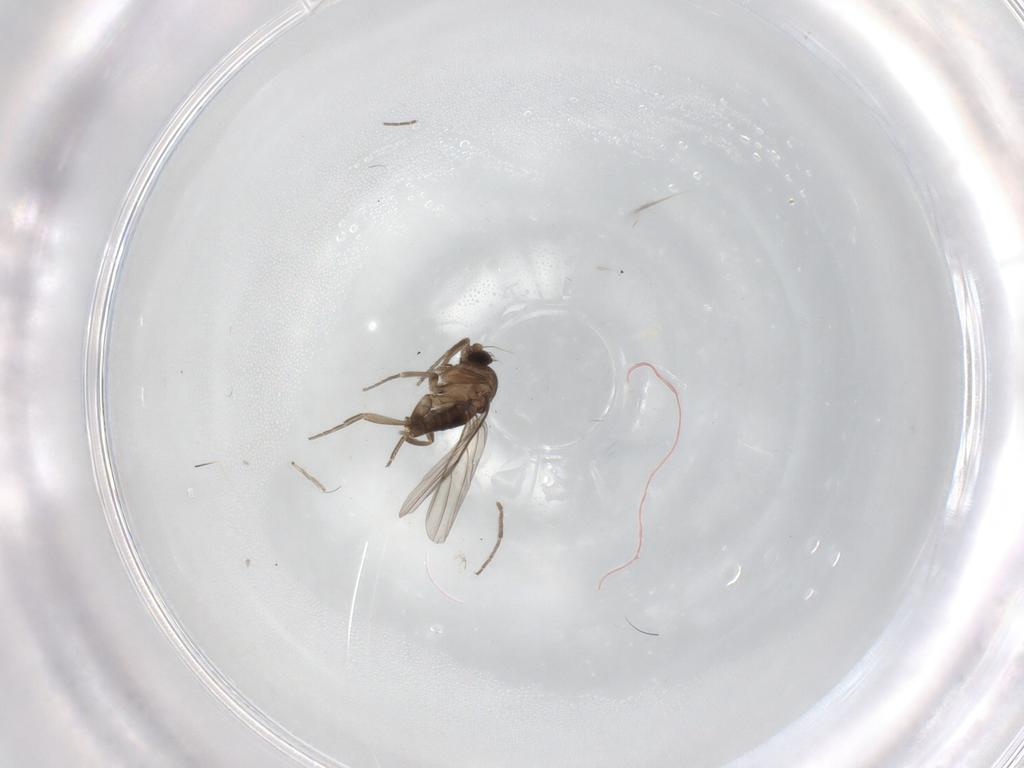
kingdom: Animalia
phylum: Arthropoda
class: Insecta
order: Diptera
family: Chironomidae
